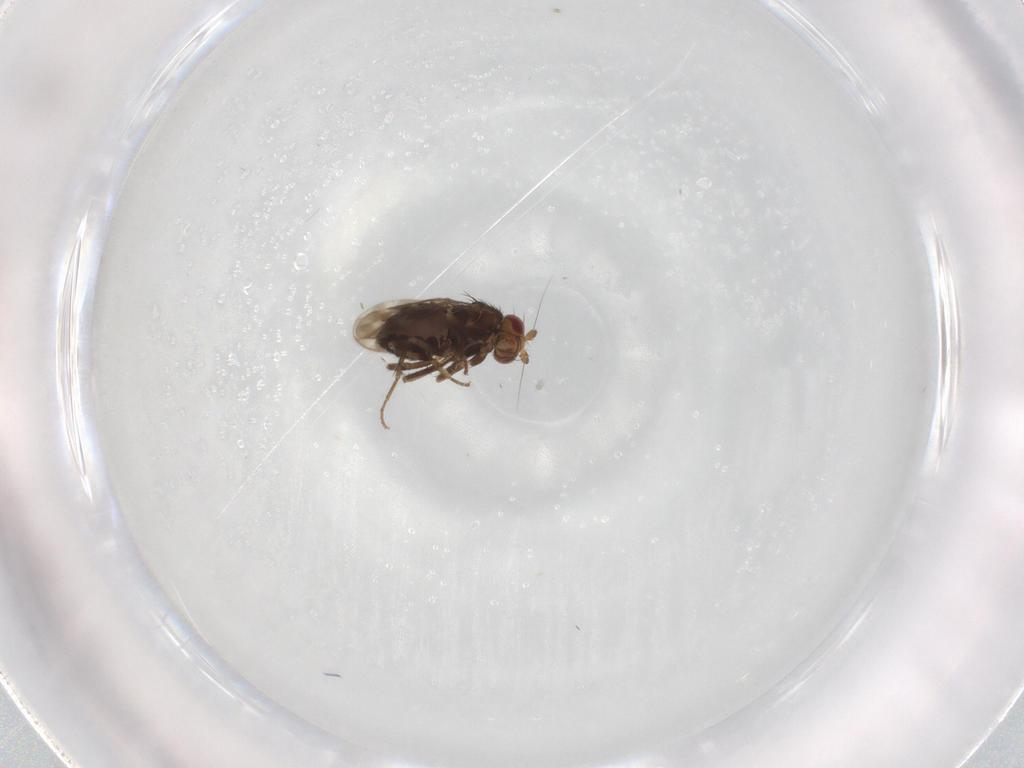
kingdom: Animalia
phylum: Arthropoda
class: Insecta
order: Diptera
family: Sphaeroceridae
